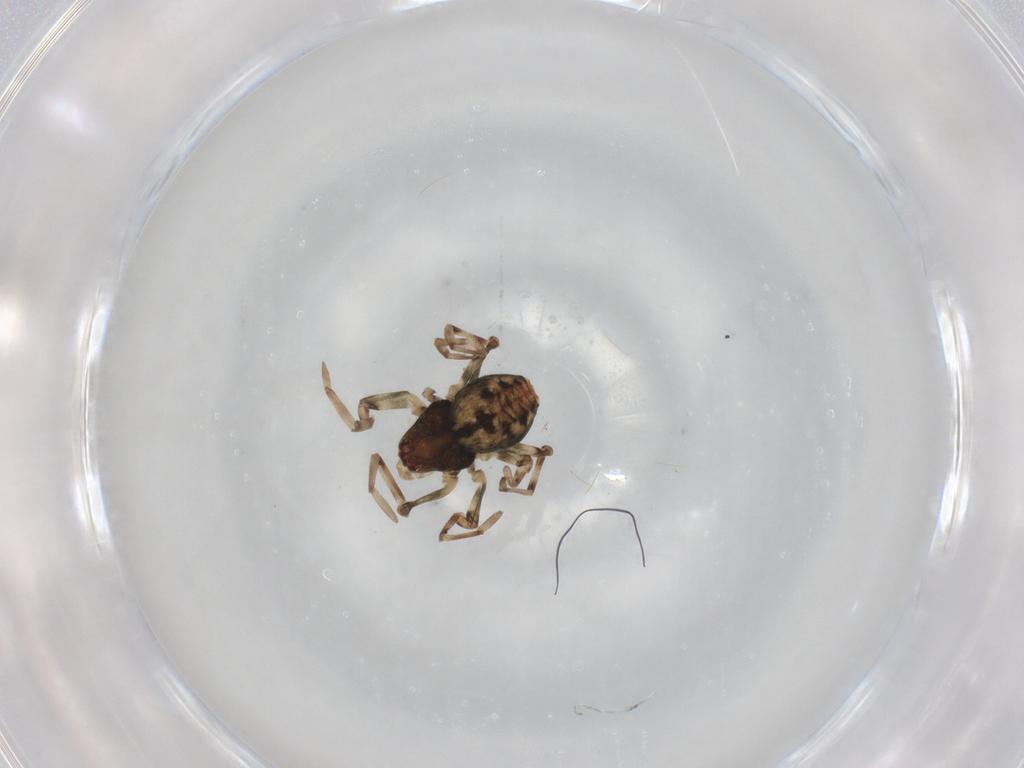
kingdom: Animalia
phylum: Arthropoda
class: Arachnida
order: Araneae
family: Dictynidae
